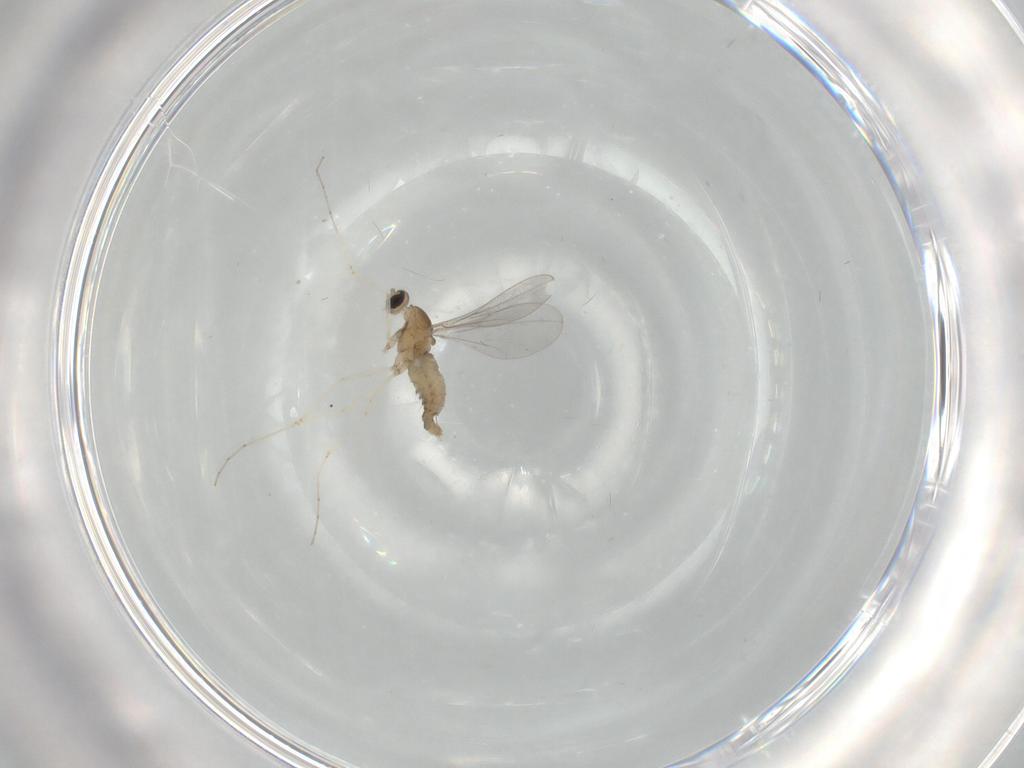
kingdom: Animalia
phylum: Arthropoda
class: Insecta
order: Diptera
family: Cecidomyiidae
